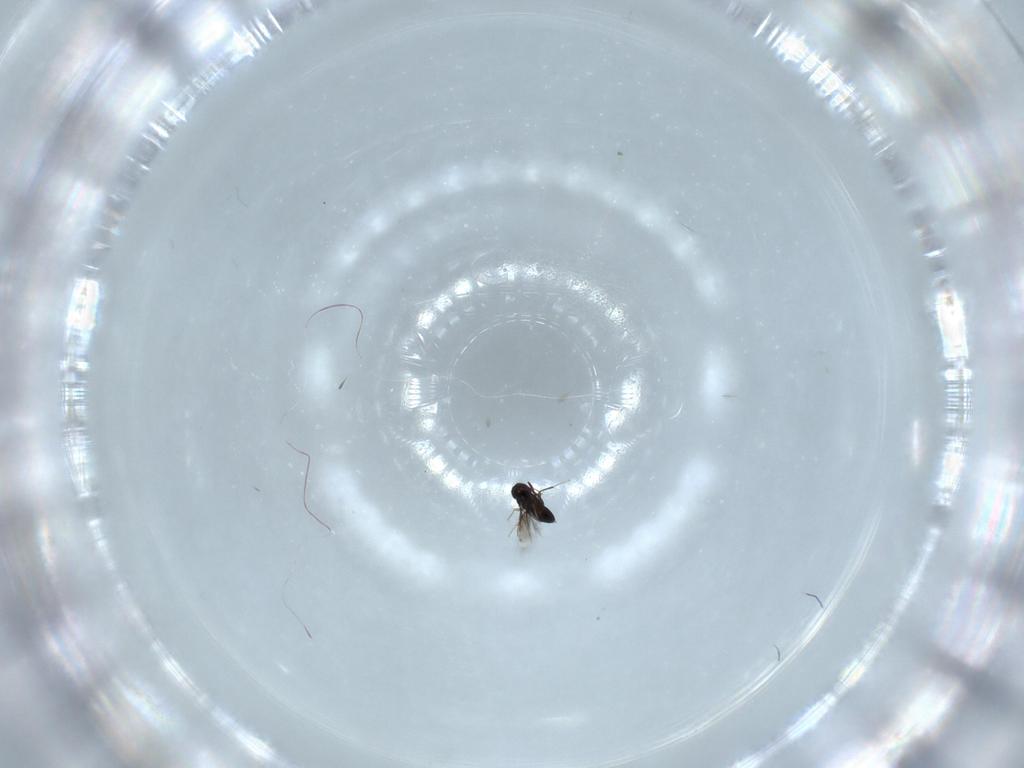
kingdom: Animalia
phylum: Arthropoda
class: Insecta
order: Hymenoptera
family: Signiphoridae
